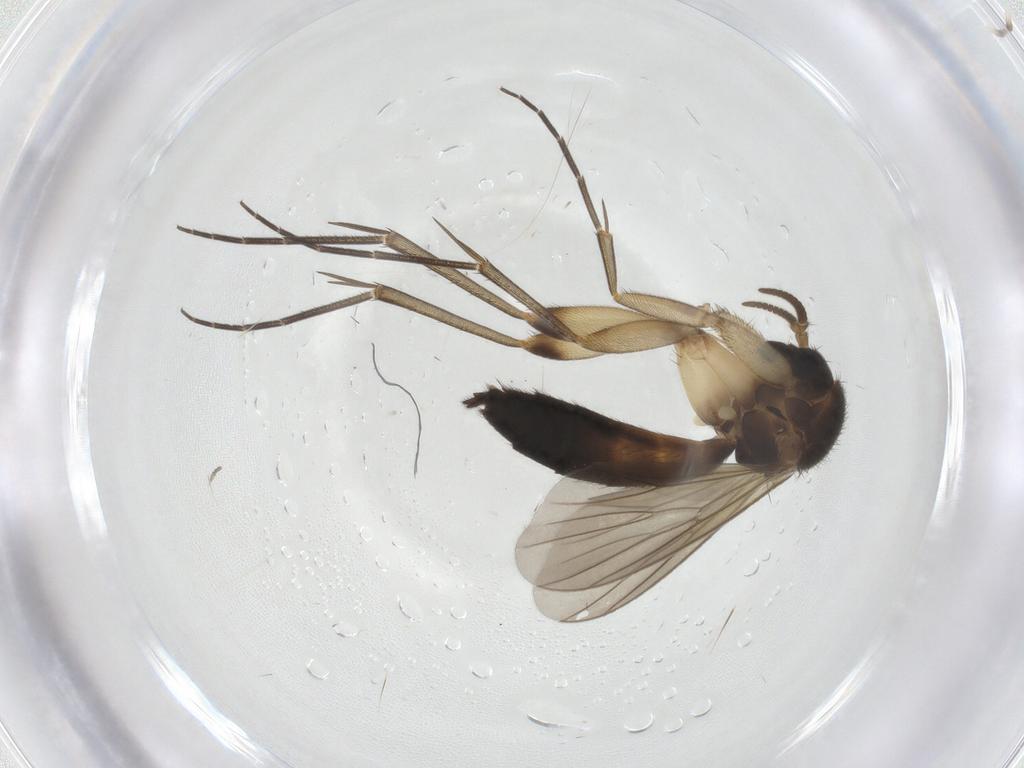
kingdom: Animalia
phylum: Arthropoda
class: Insecta
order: Diptera
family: Mycetophilidae
